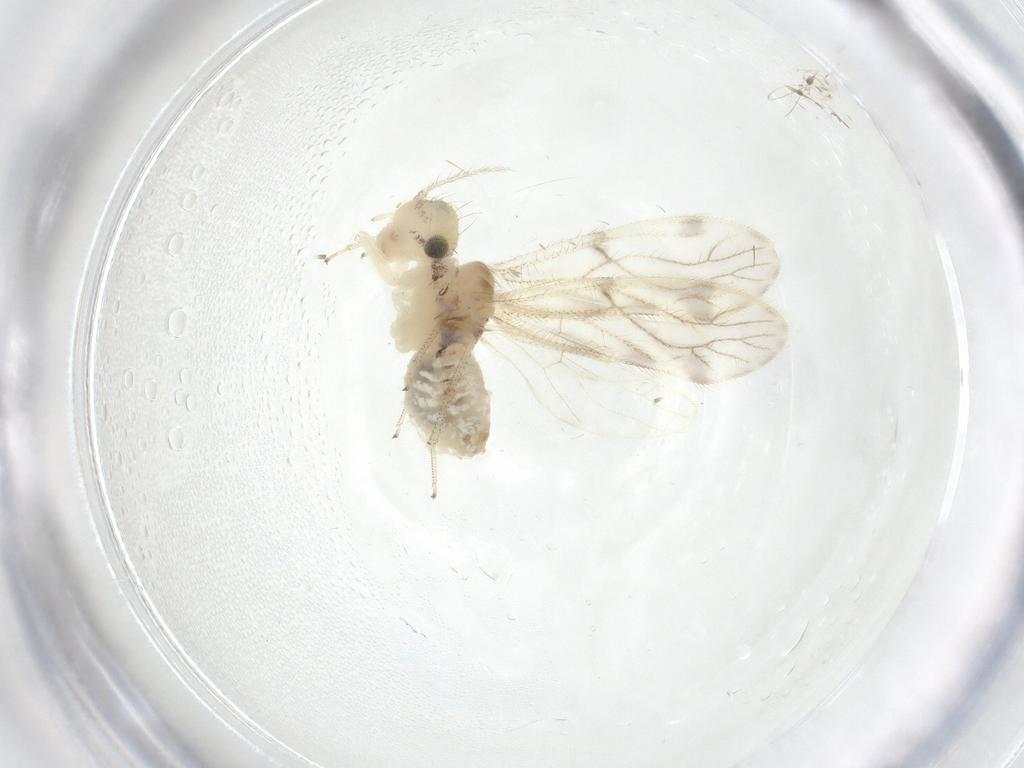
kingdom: Animalia
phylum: Arthropoda
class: Insecta
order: Psocodea
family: Pseudocaeciliidae
